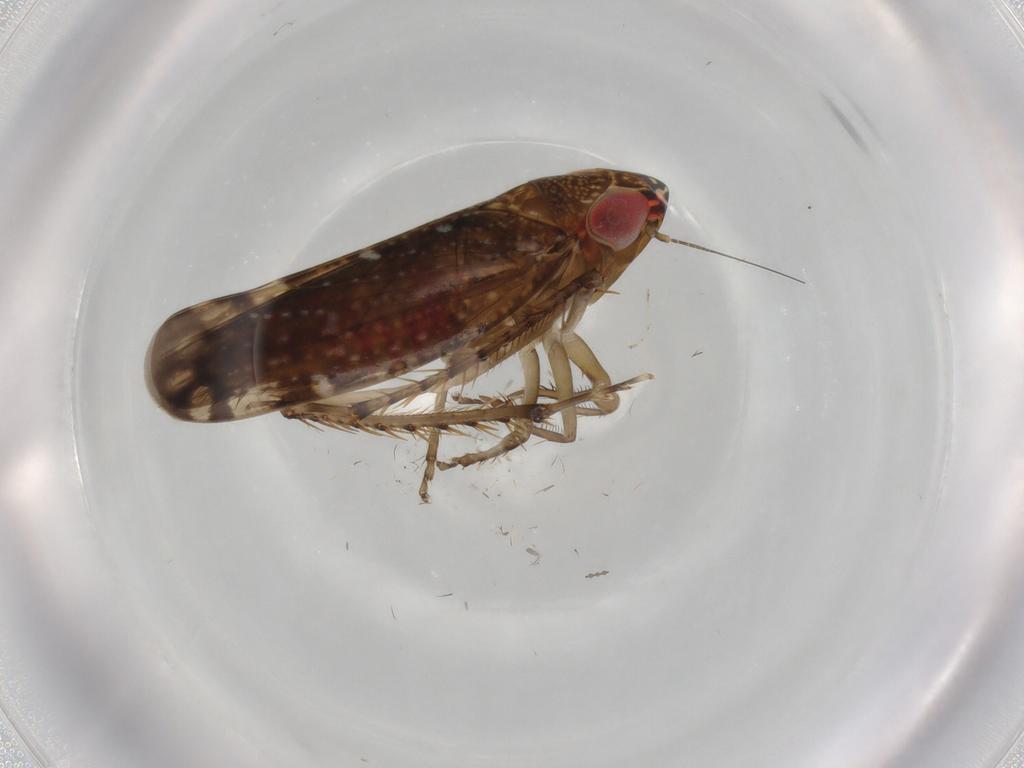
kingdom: Animalia
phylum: Arthropoda
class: Insecta
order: Hemiptera
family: Cicadellidae
